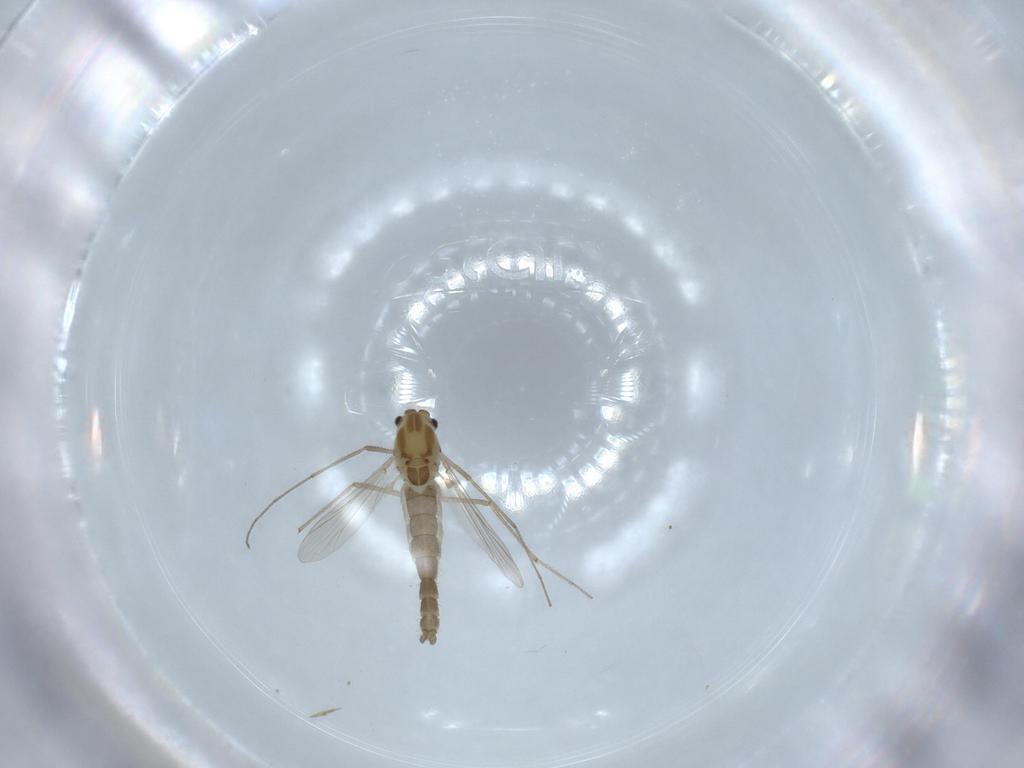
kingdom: Animalia
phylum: Arthropoda
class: Insecta
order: Diptera
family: Chironomidae
